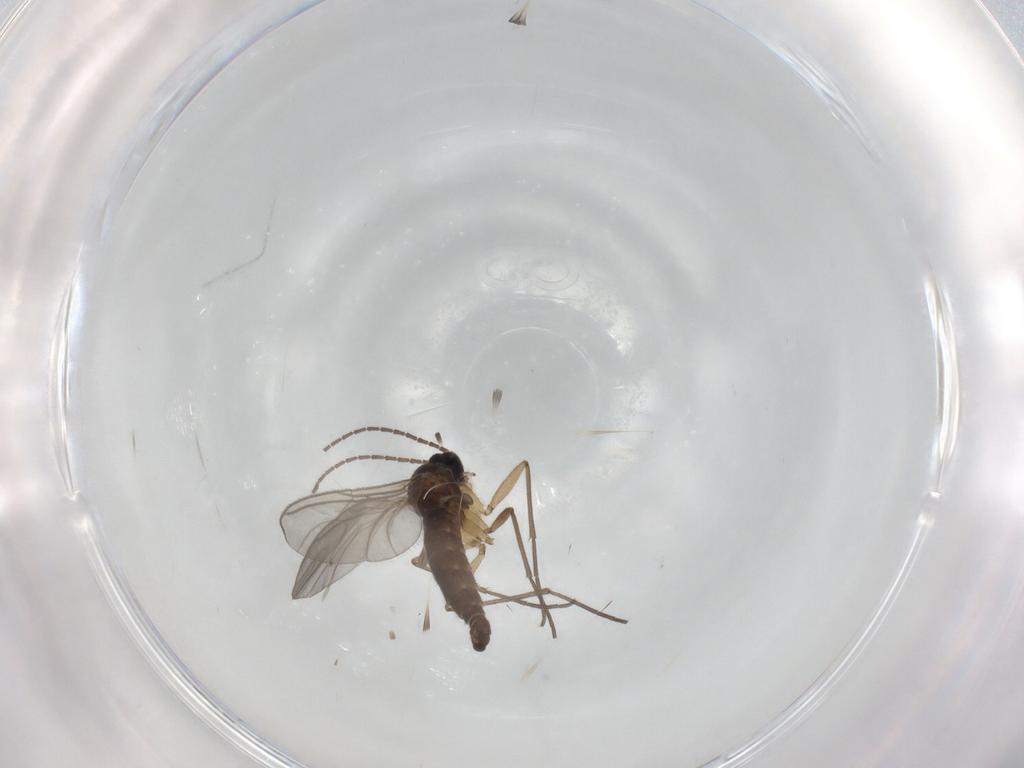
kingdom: Animalia
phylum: Arthropoda
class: Insecta
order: Diptera
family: Sciaridae
